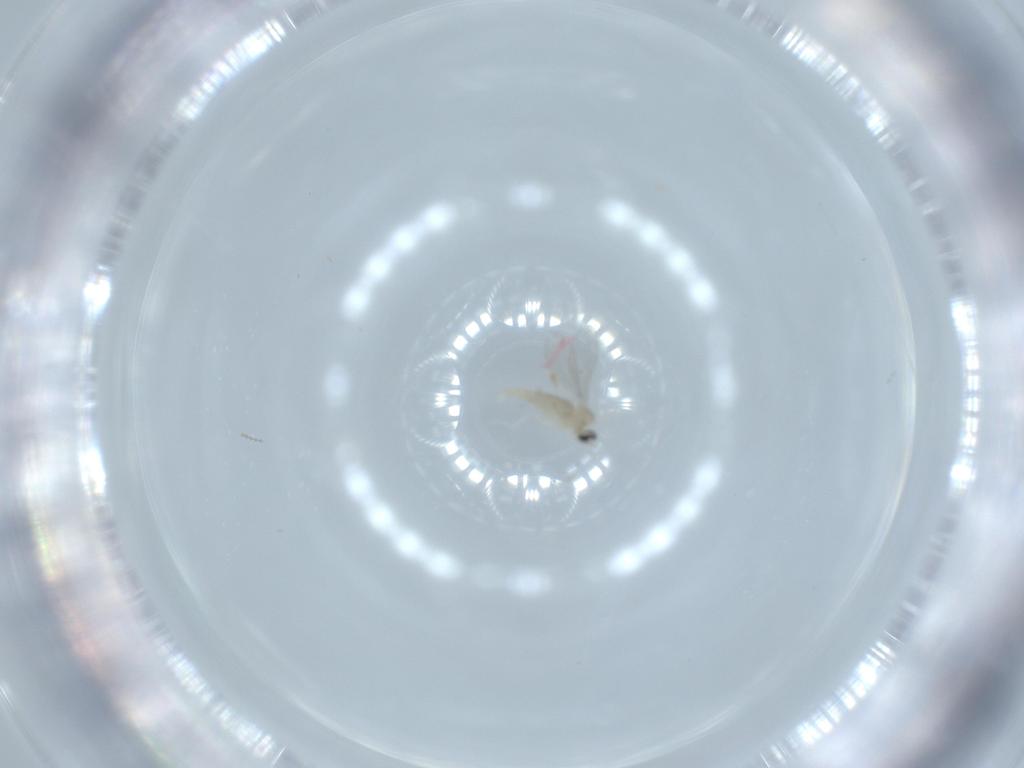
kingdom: Animalia
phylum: Arthropoda
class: Insecta
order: Diptera
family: Cecidomyiidae
